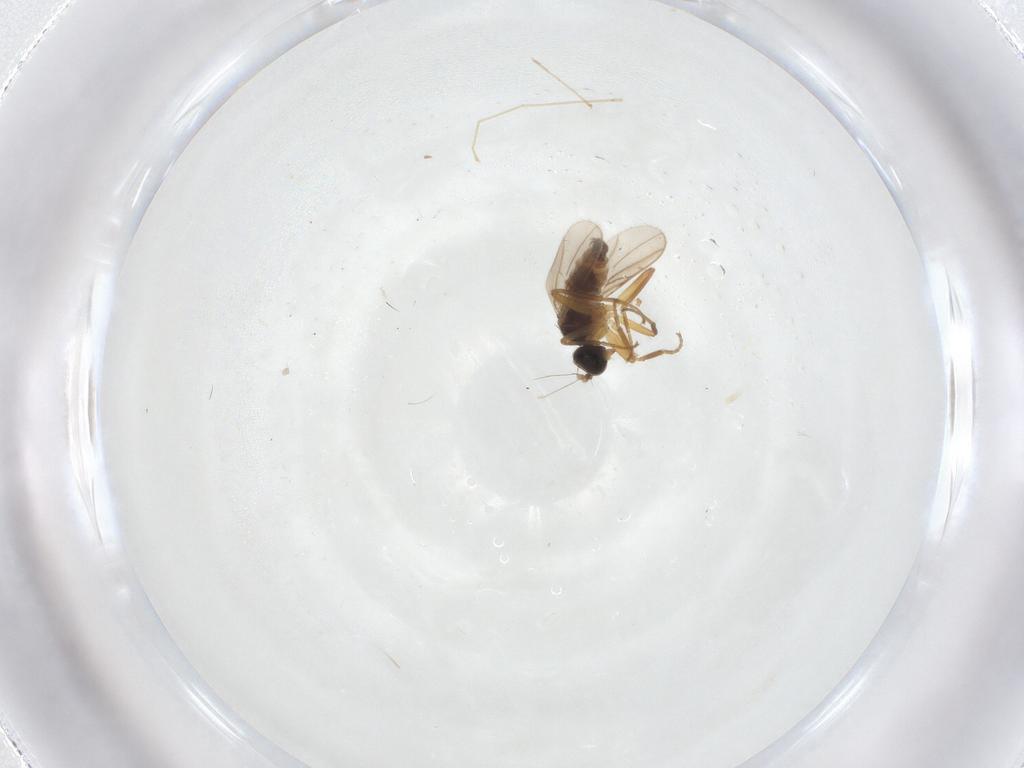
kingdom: Animalia
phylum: Arthropoda
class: Insecta
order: Diptera
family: Hybotidae
